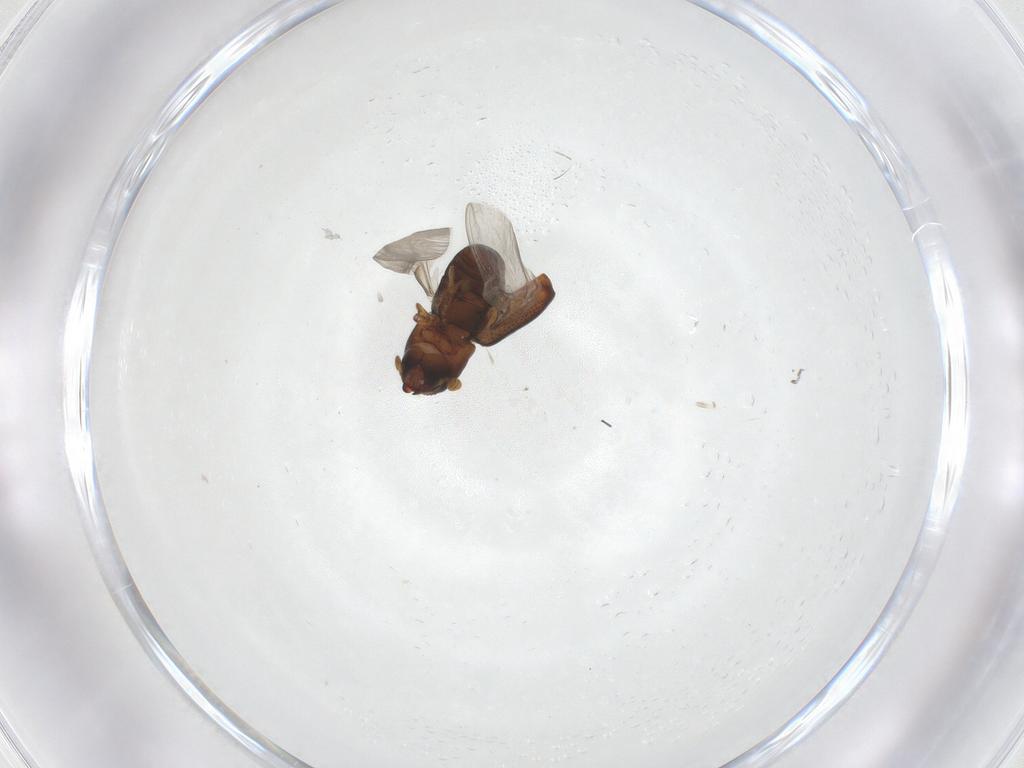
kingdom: Animalia
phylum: Arthropoda
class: Insecta
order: Coleoptera
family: Curculionidae
